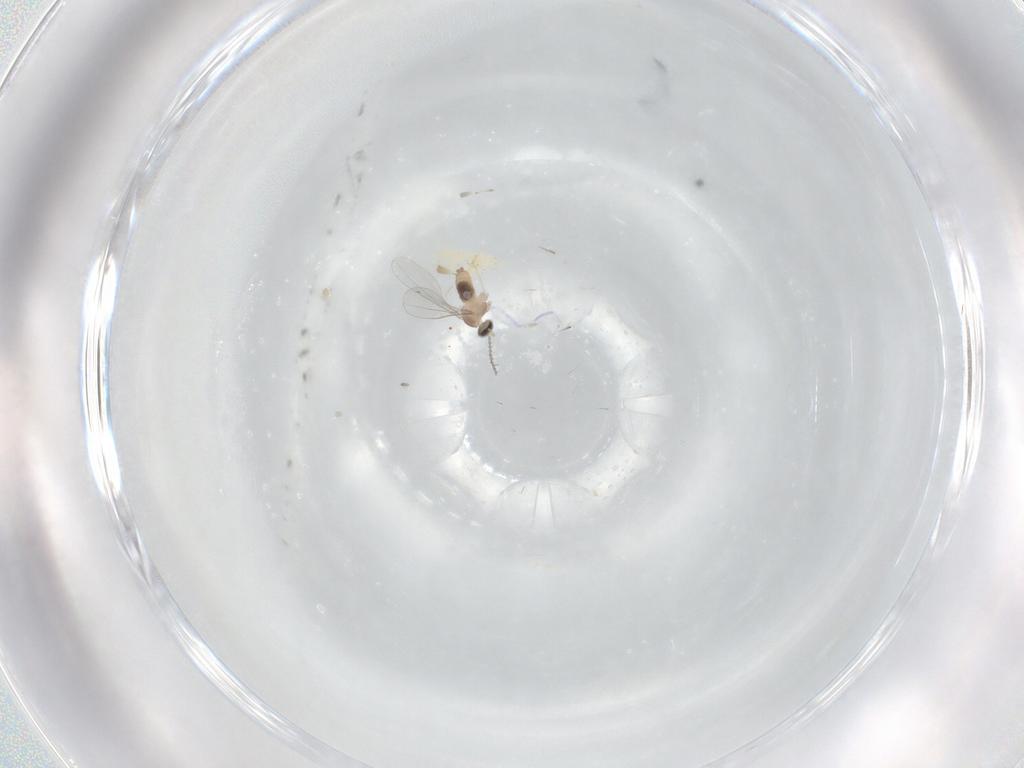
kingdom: Animalia
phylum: Arthropoda
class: Insecta
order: Diptera
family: Cecidomyiidae
